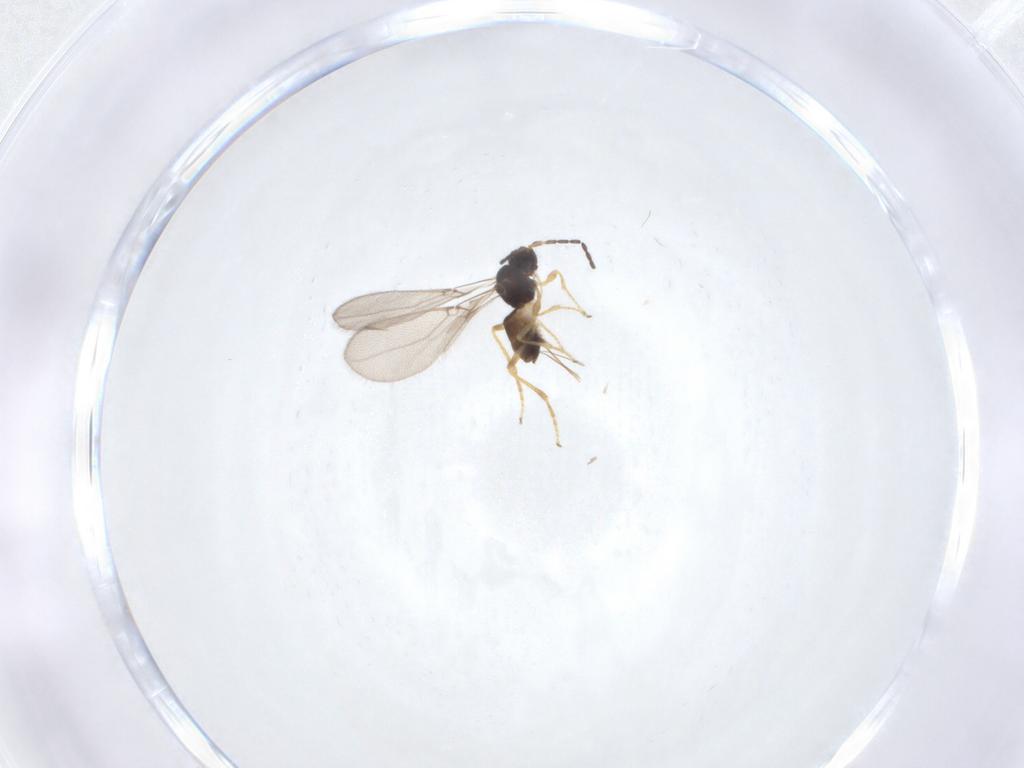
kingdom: Animalia
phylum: Arthropoda
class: Insecta
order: Hymenoptera
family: Braconidae
